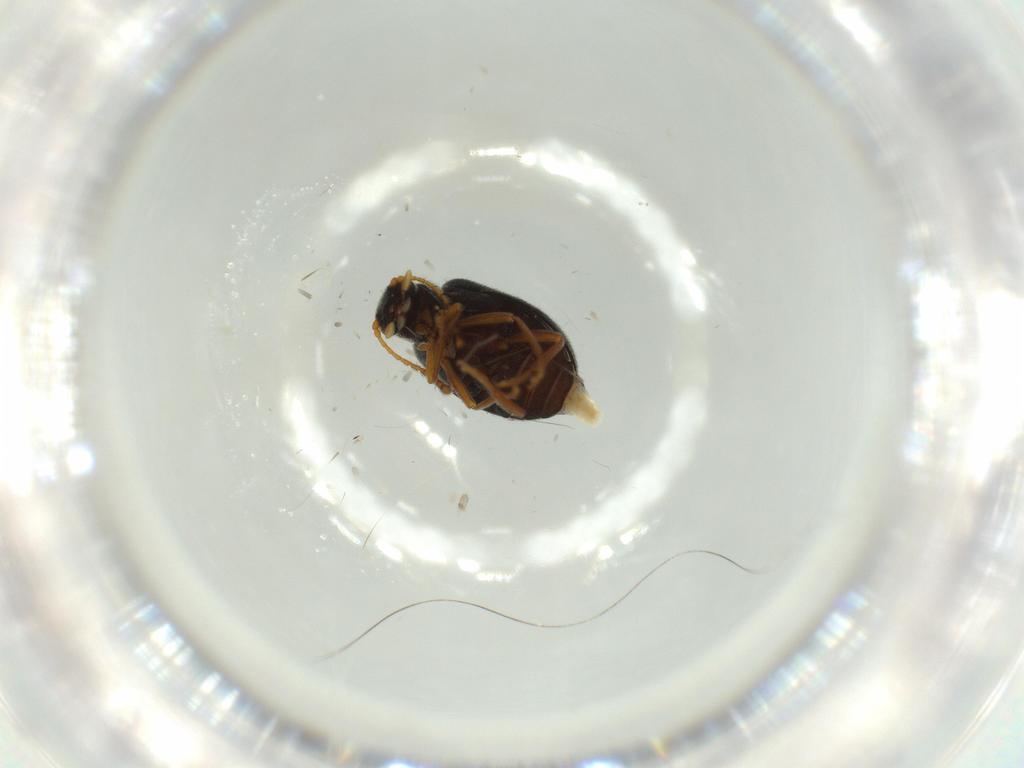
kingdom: Animalia
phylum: Arthropoda
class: Insecta
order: Coleoptera
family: Aderidae
